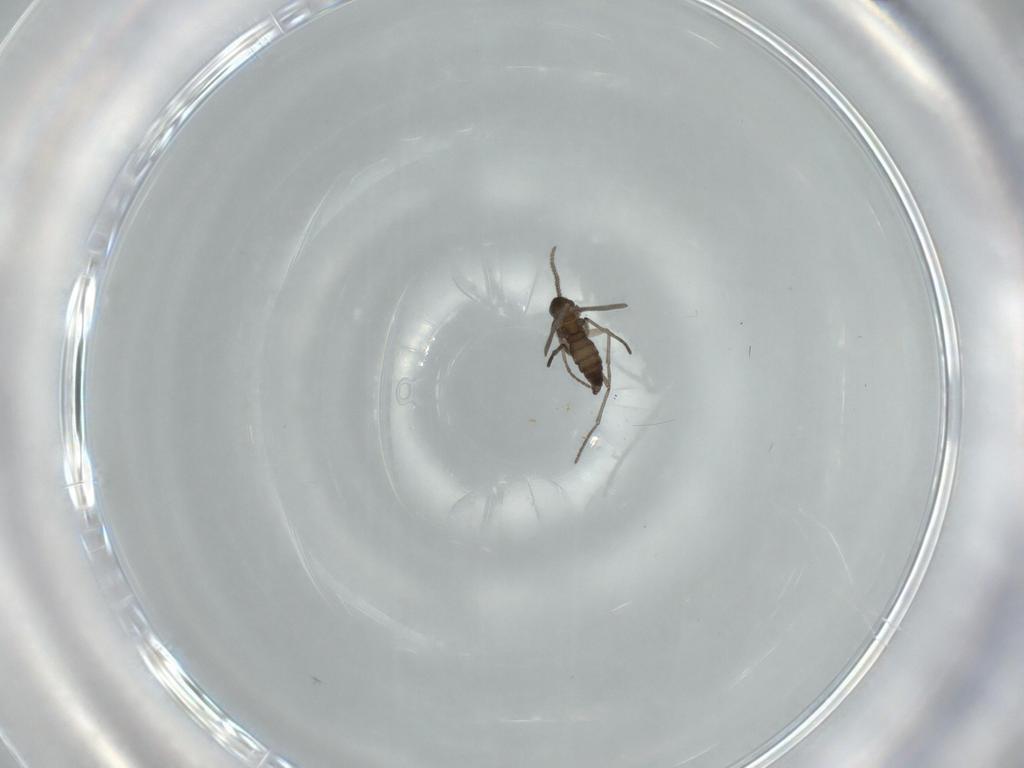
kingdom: Animalia
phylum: Arthropoda
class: Insecta
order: Diptera
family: Sciaridae
